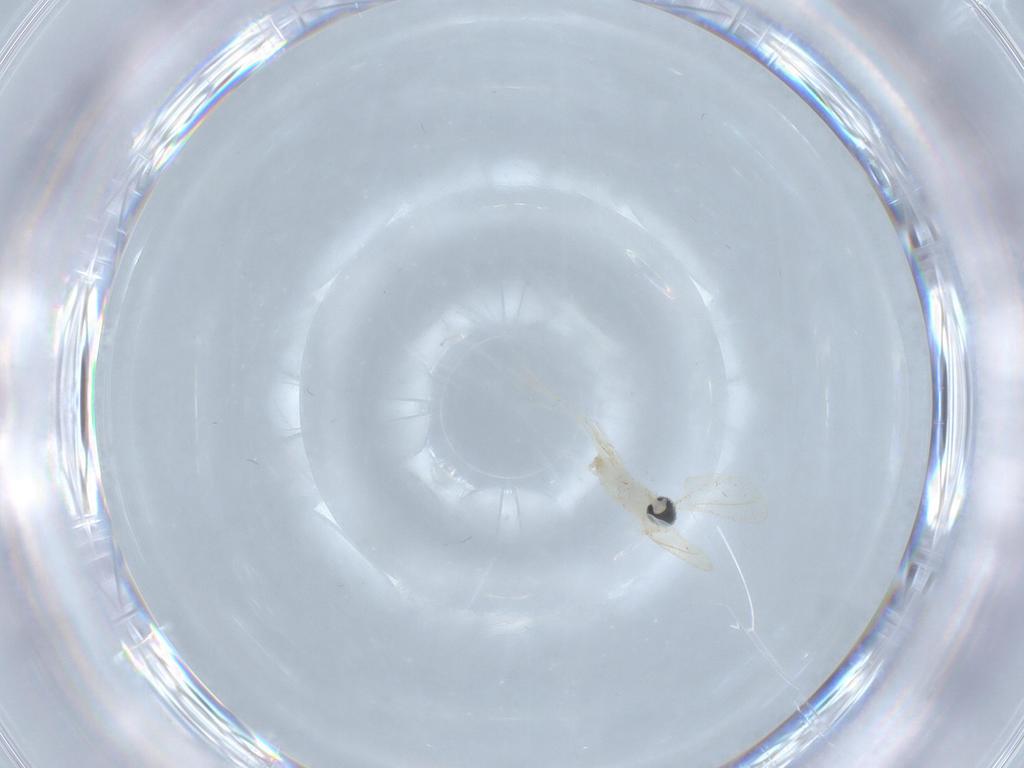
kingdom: Animalia
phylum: Arthropoda
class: Insecta
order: Diptera
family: Cecidomyiidae
